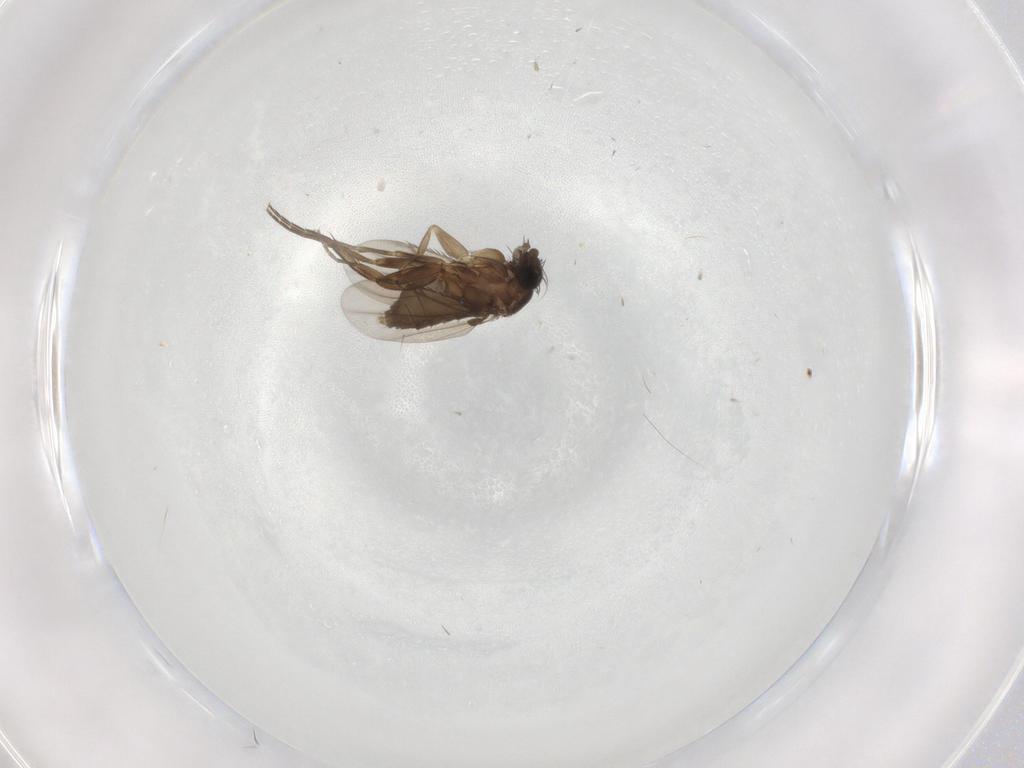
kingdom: Animalia
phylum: Arthropoda
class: Insecta
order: Diptera
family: Phoridae
